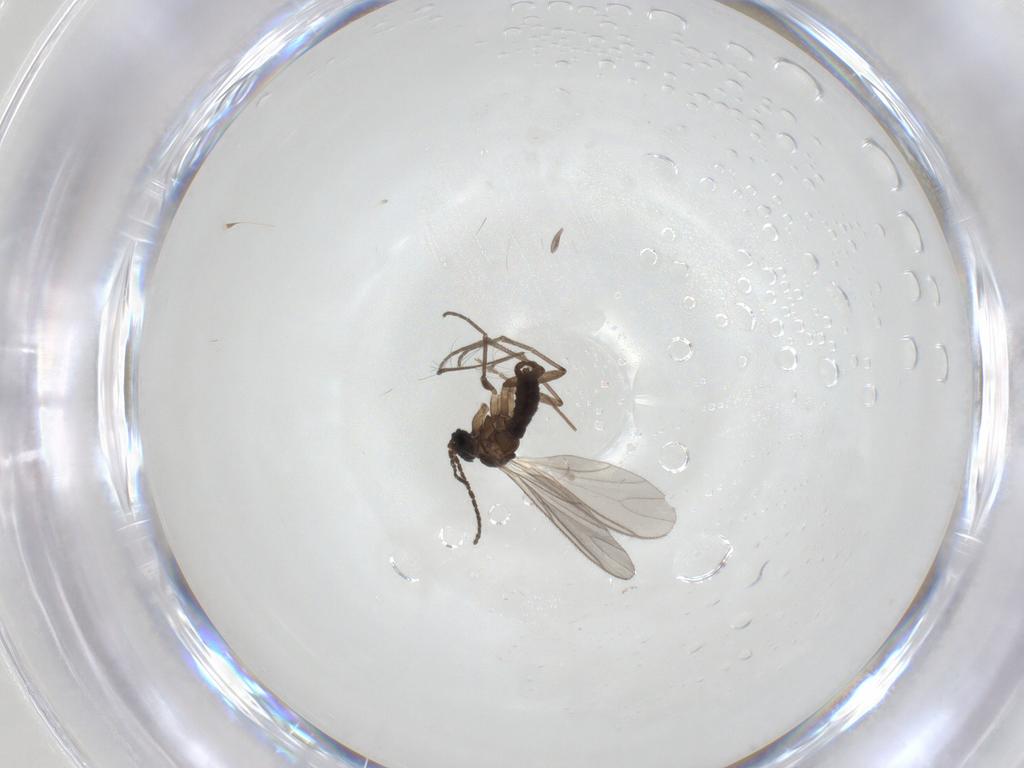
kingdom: Animalia
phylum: Arthropoda
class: Insecta
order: Diptera
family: Sciaridae
